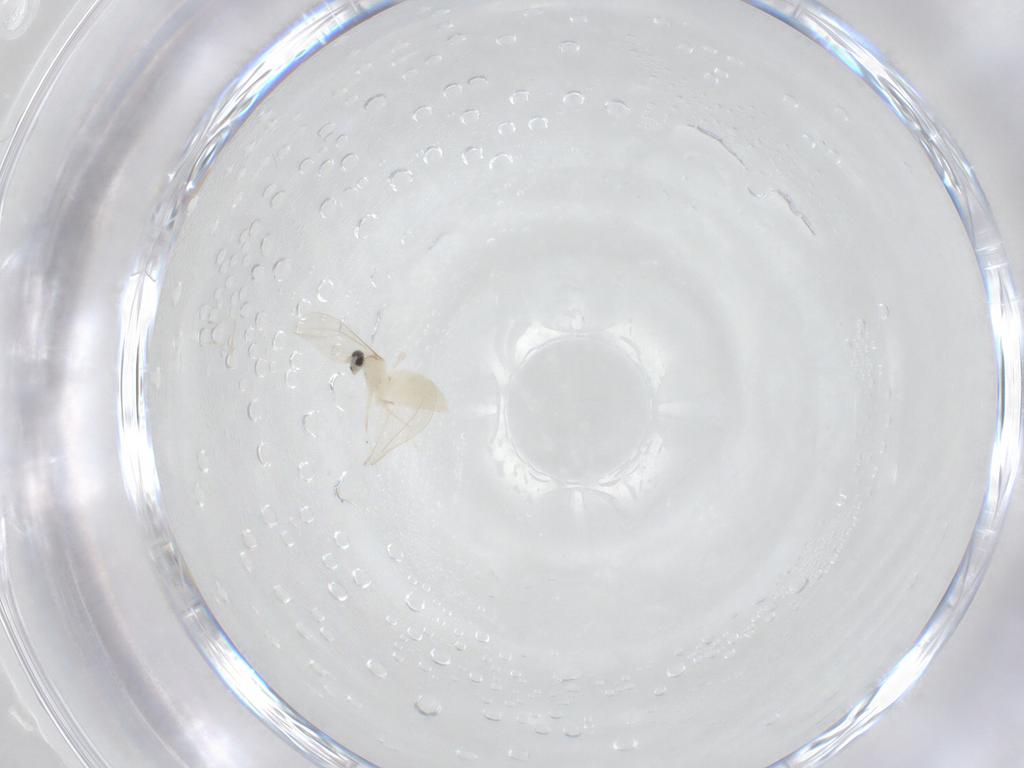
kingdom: Animalia
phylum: Arthropoda
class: Insecta
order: Diptera
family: Cecidomyiidae
